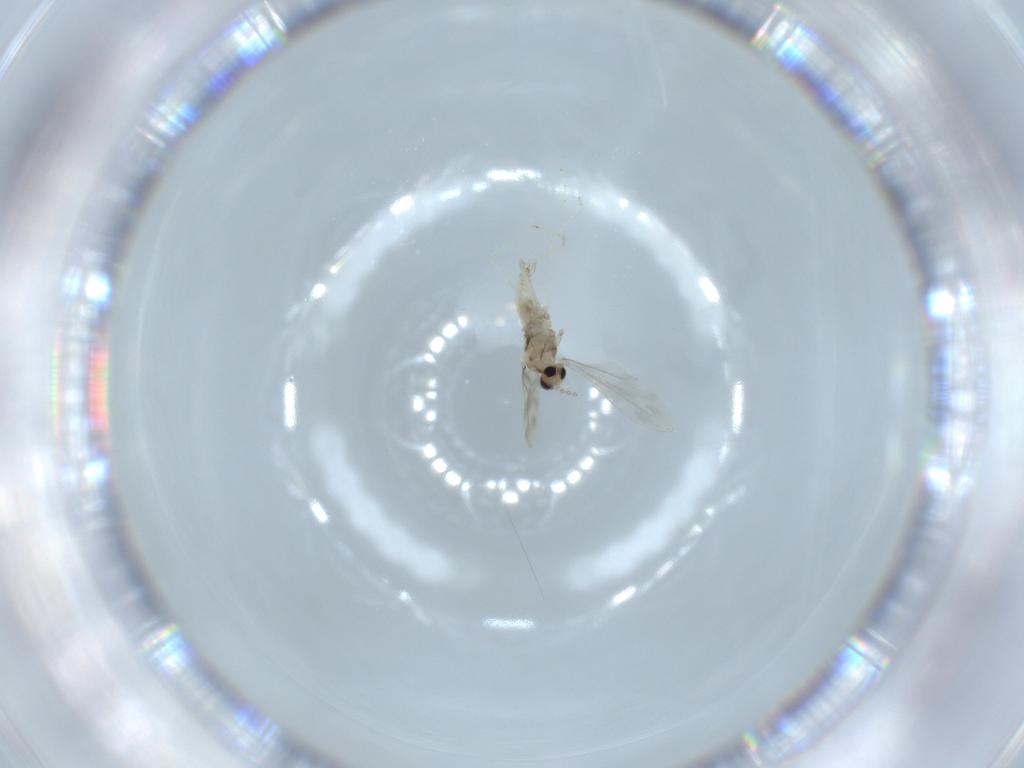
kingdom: Animalia
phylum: Arthropoda
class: Insecta
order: Diptera
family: Cecidomyiidae
